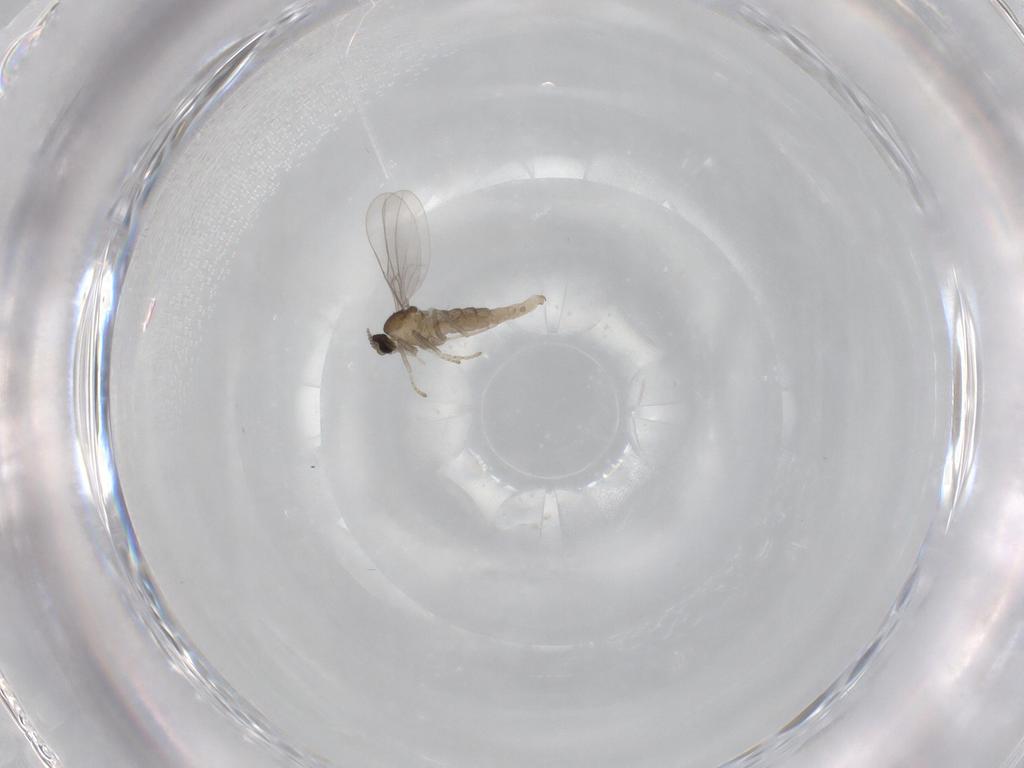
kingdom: Animalia
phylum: Arthropoda
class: Insecta
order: Diptera
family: Cecidomyiidae
